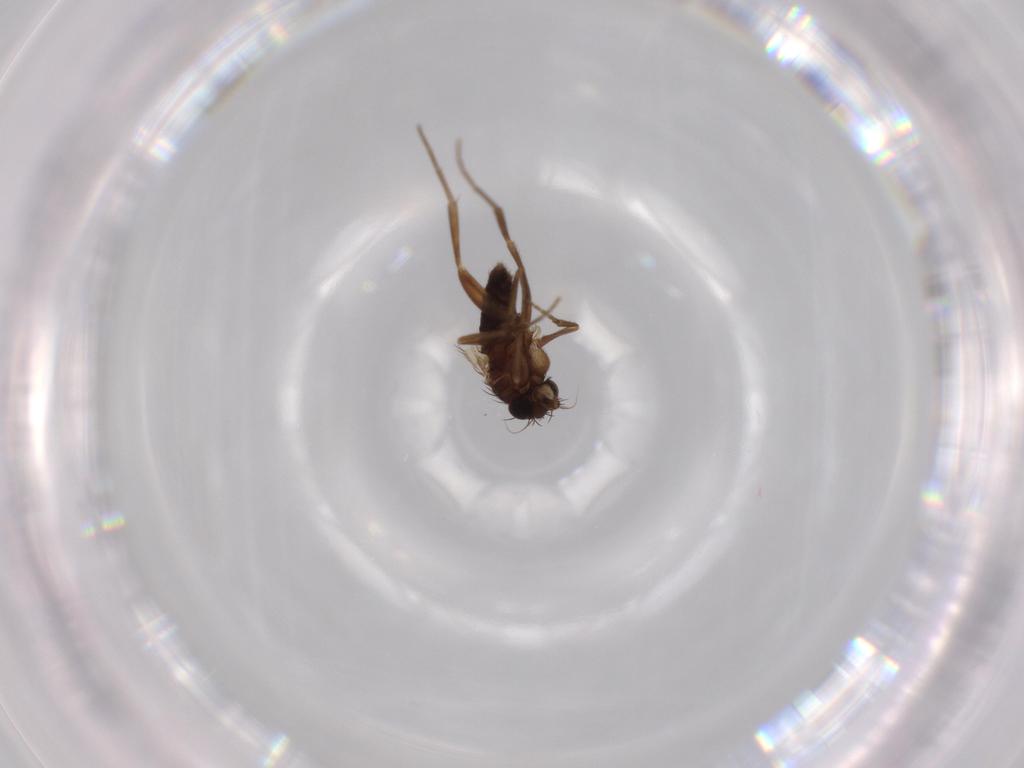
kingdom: Animalia
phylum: Arthropoda
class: Insecta
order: Diptera
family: Phoridae
